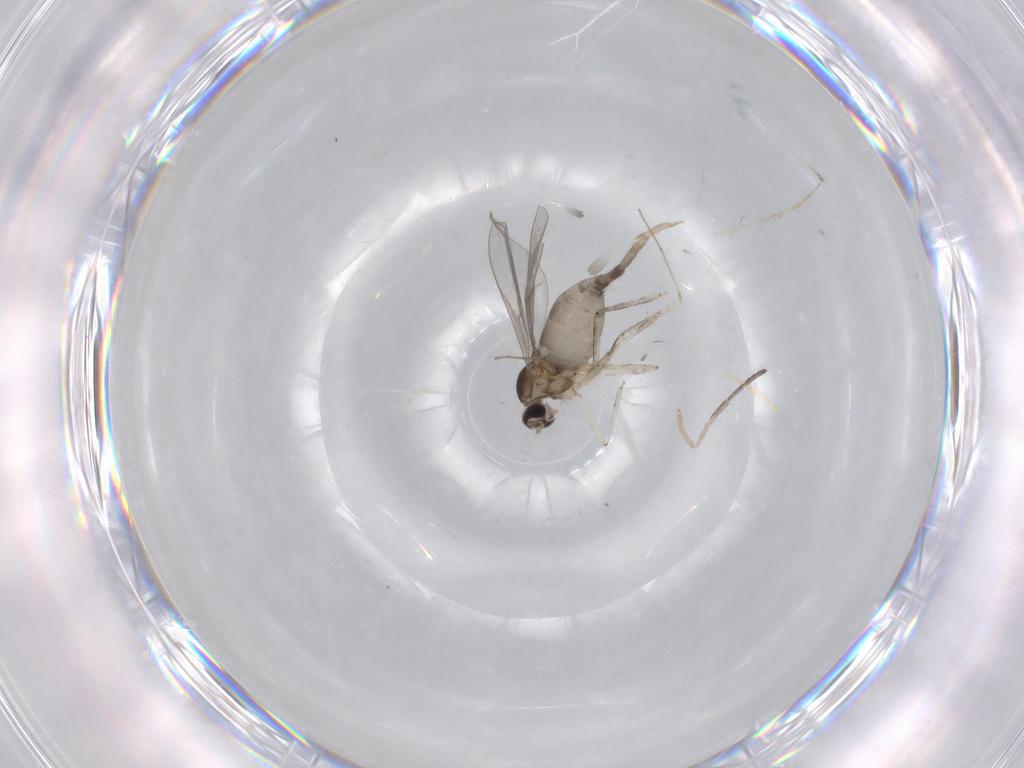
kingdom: Animalia
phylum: Arthropoda
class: Insecta
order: Diptera
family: Cecidomyiidae
